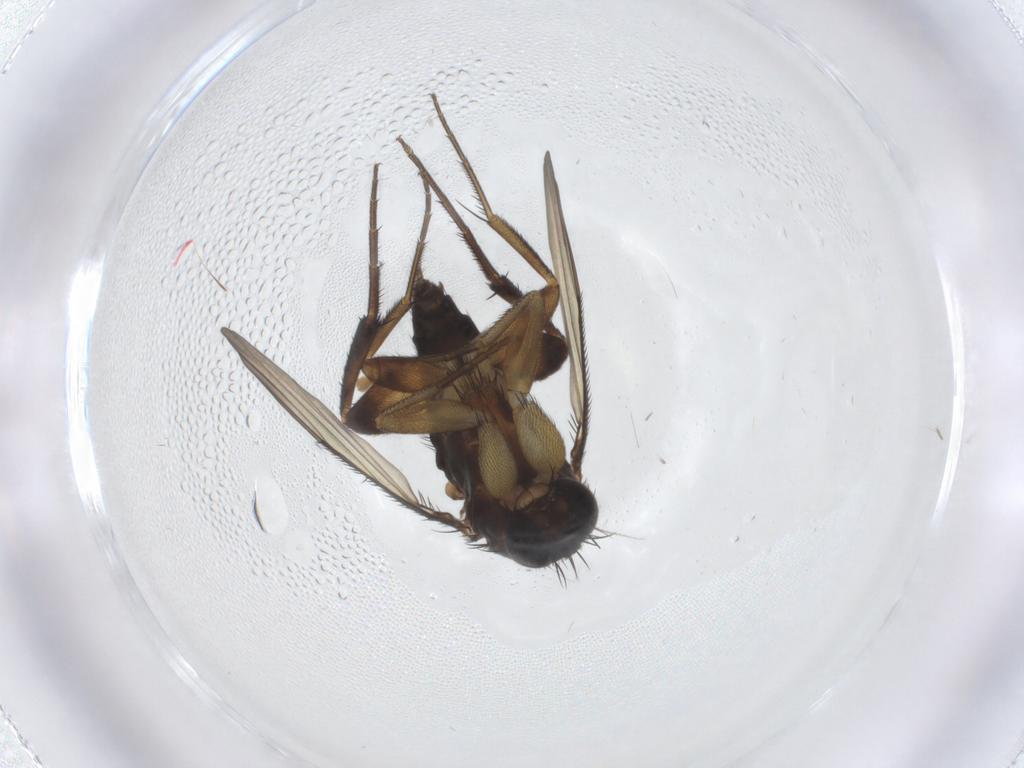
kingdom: Animalia
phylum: Arthropoda
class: Insecta
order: Diptera
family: Phoridae
